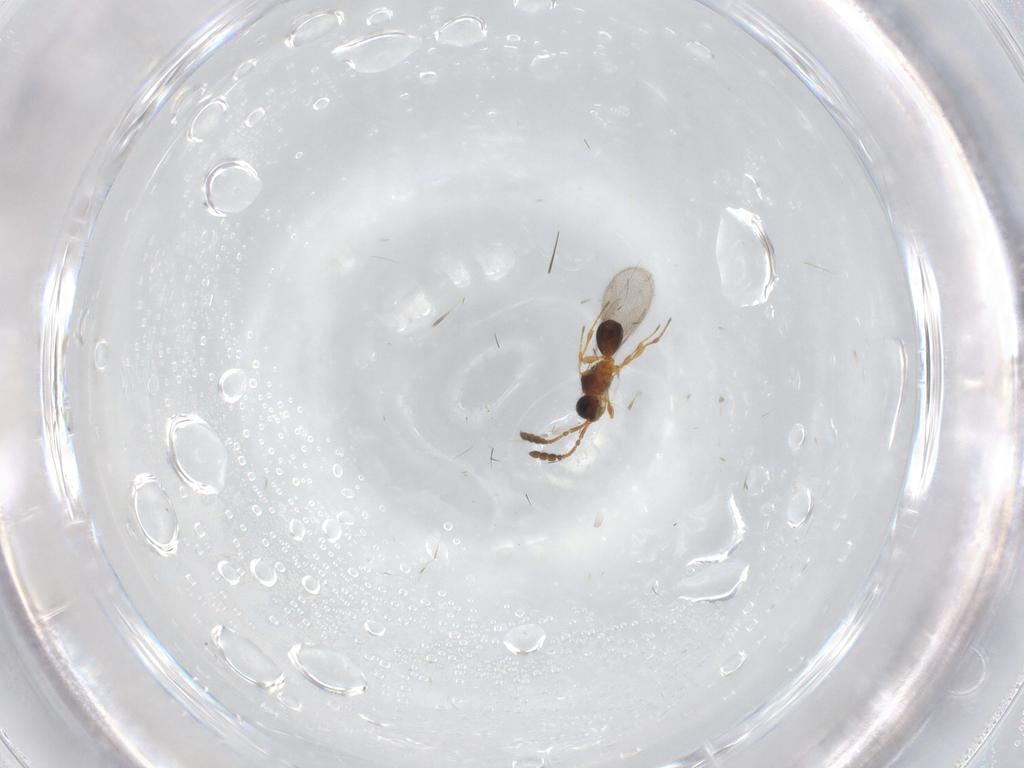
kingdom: Animalia
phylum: Arthropoda
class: Insecta
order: Hymenoptera
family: Diapriidae
